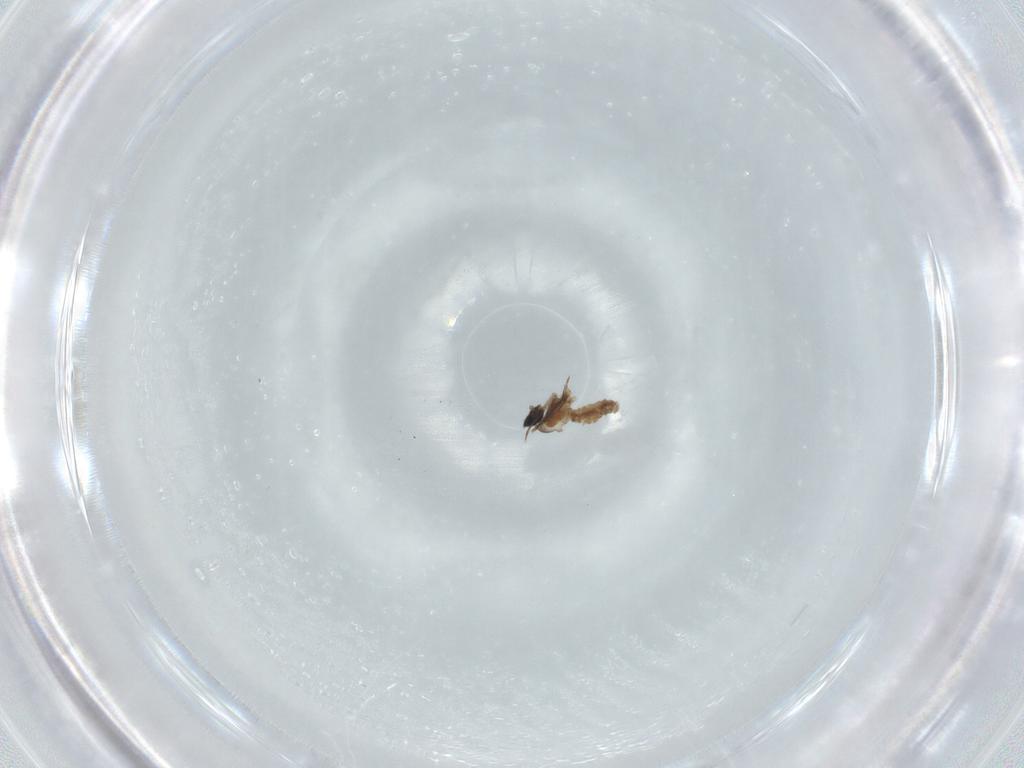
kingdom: Animalia
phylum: Arthropoda
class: Insecta
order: Diptera
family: Cecidomyiidae
